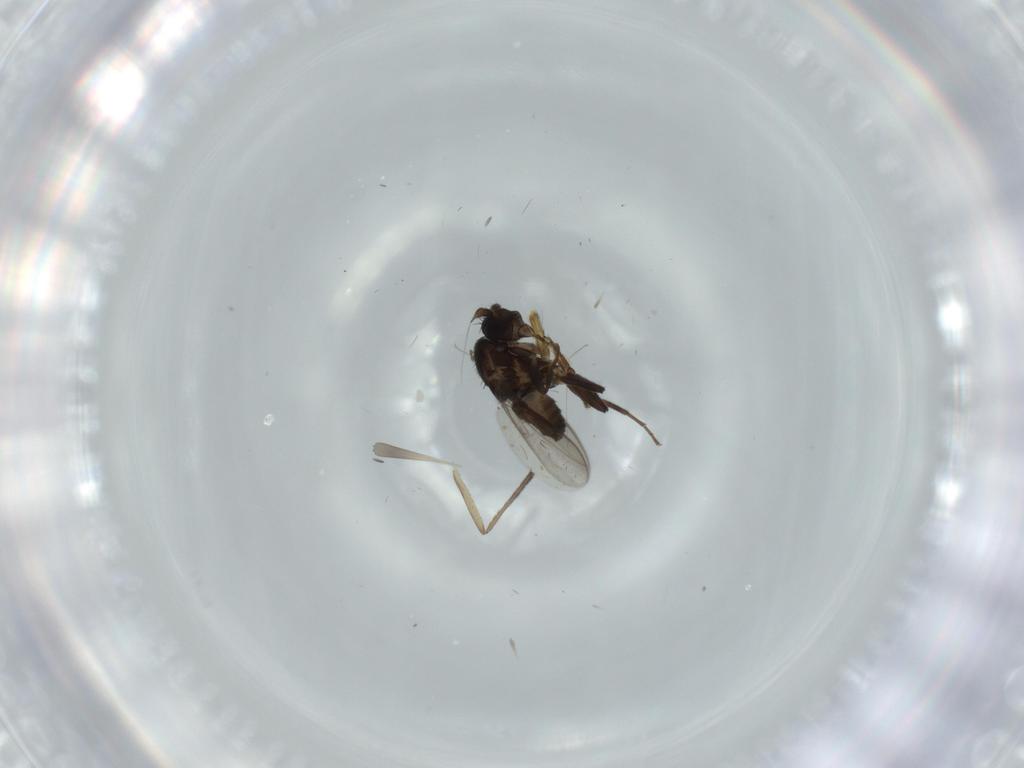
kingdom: Animalia
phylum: Arthropoda
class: Insecta
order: Diptera
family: Sphaeroceridae
